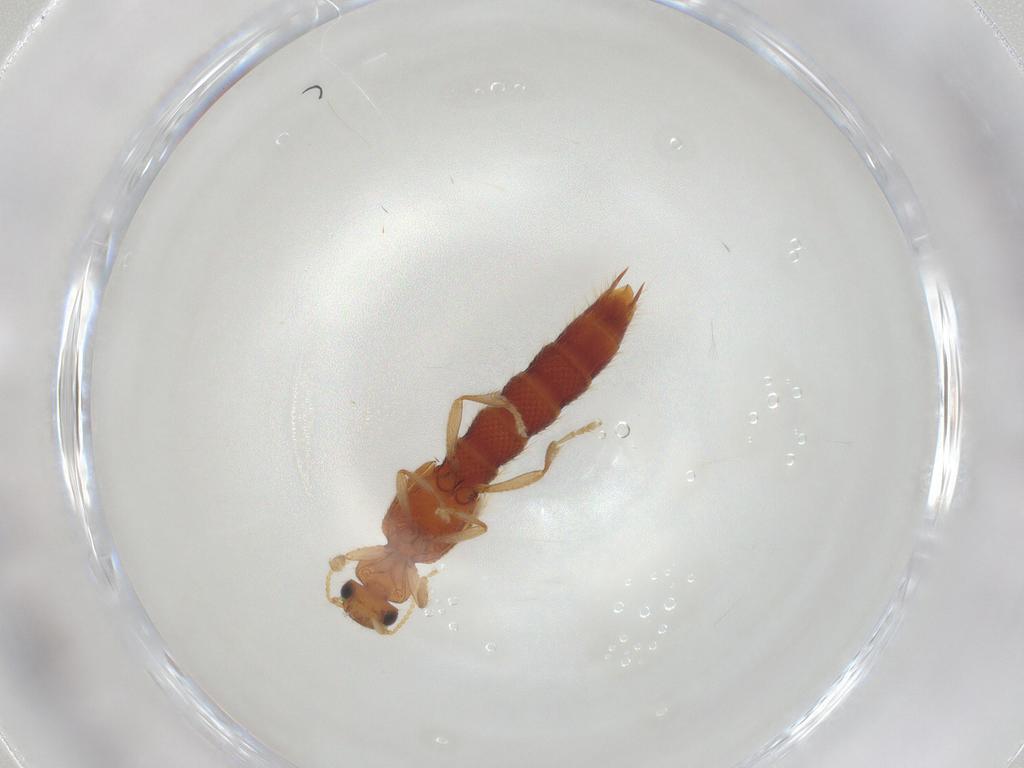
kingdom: Animalia
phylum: Arthropoda
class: Insecta
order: Coleoptera
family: Staphylinidae
